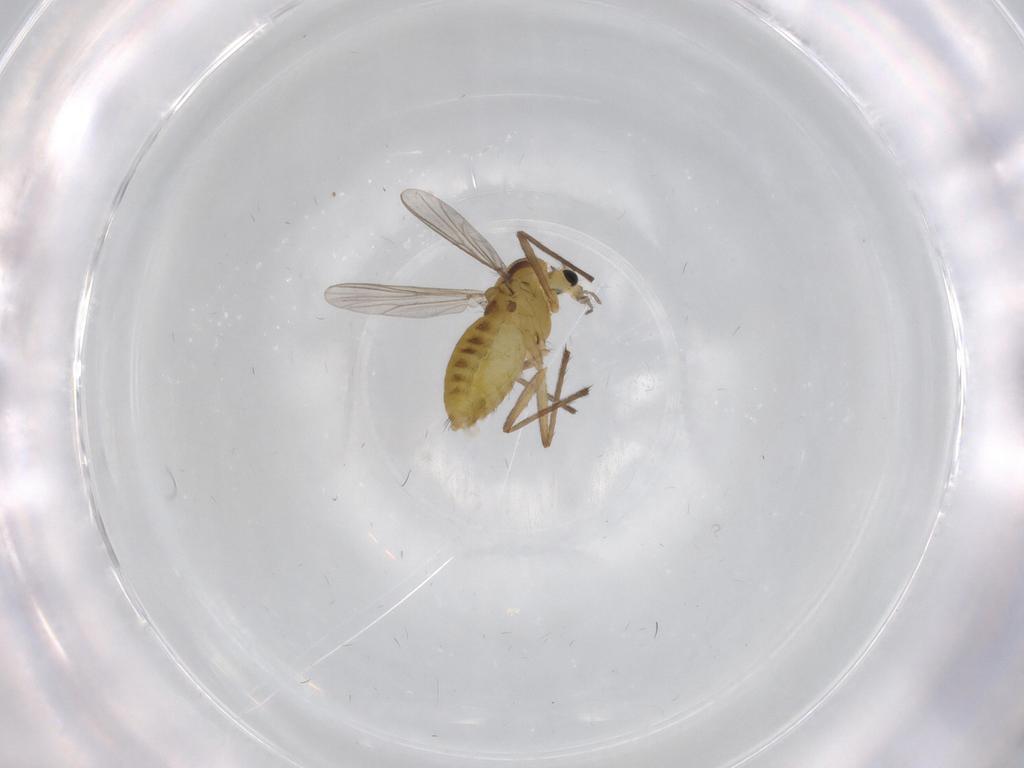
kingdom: Animalia
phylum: Arthropoda
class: Insecta
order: Diptera
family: Chironomidae
